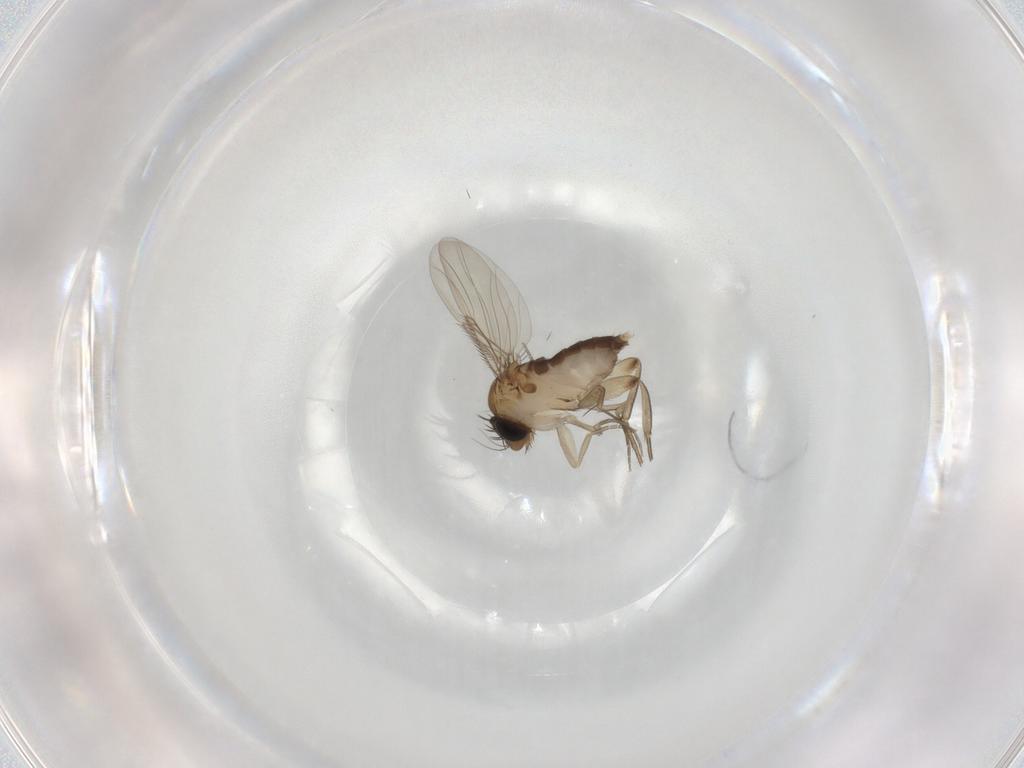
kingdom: Animalia
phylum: Arthropoda
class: Insecta
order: Diptera
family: Phoridae
